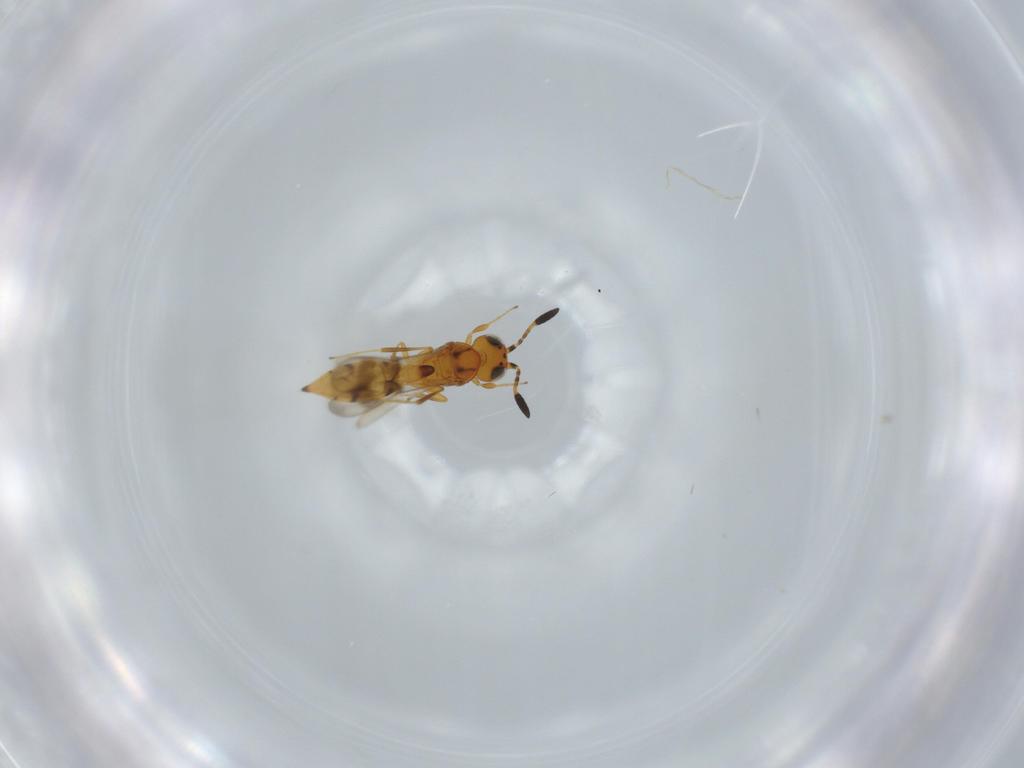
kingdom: Animalia
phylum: Arthropoda
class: Insecta
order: Hymenoptera
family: Scelionidae
